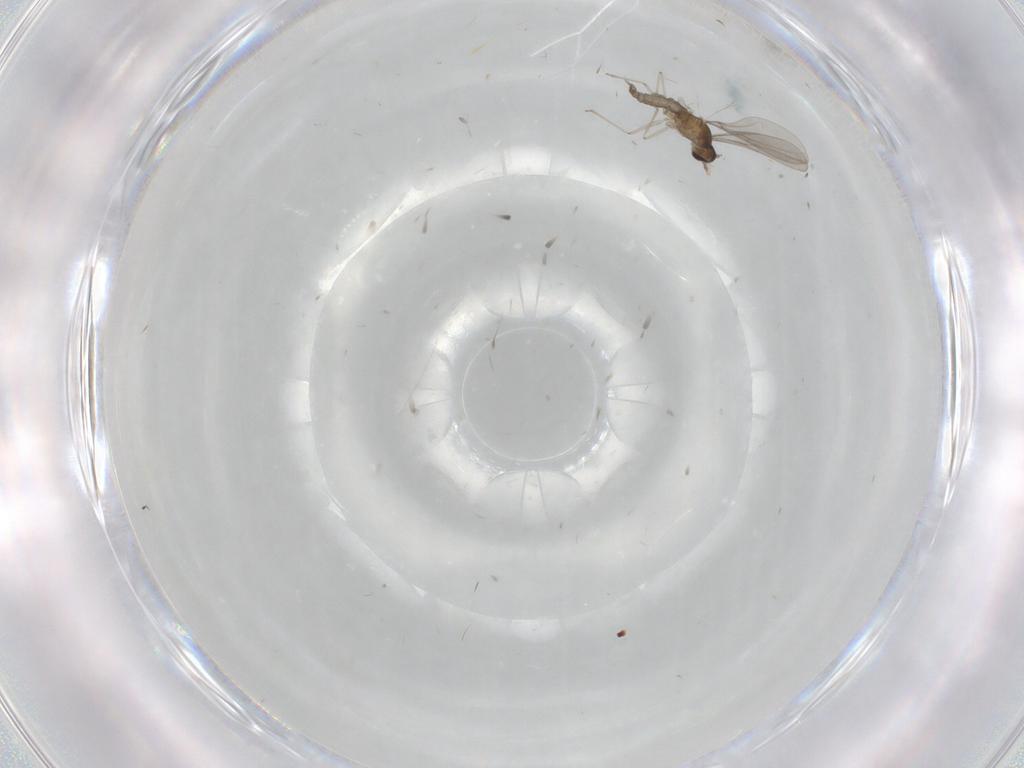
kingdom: Animalia
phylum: Arthropoda
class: Insecta
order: Diptera
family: Cecidomyiidae
